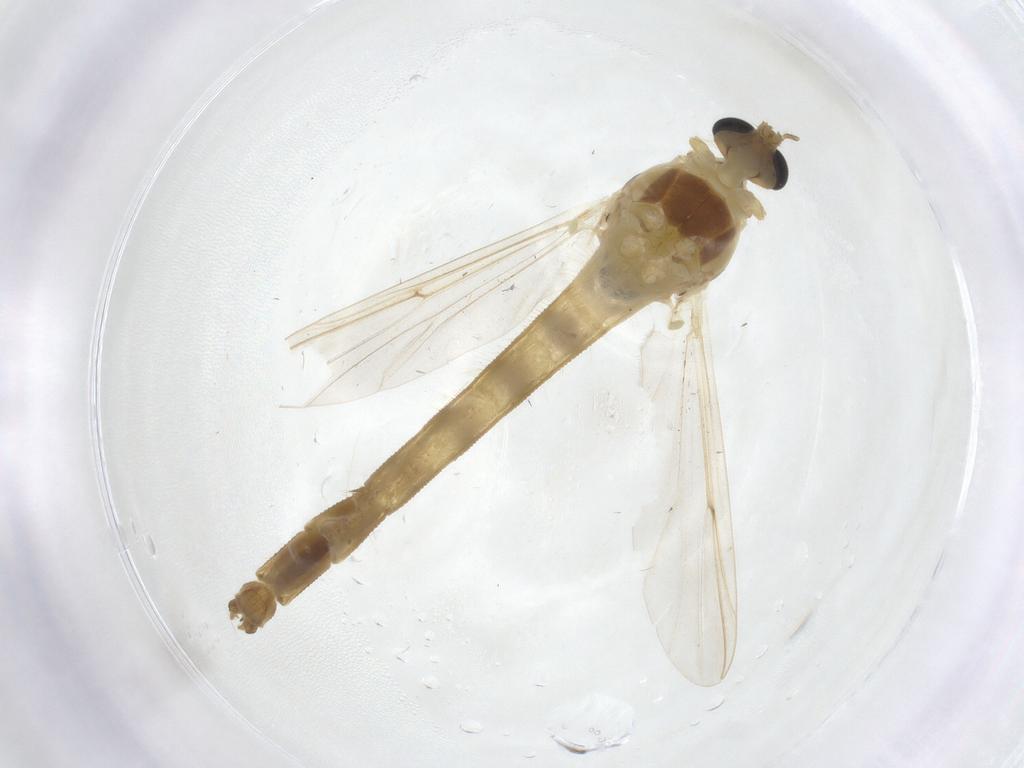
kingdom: Animalia
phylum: Arthropoda
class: Insecta
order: Diptera
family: Chironomidae
